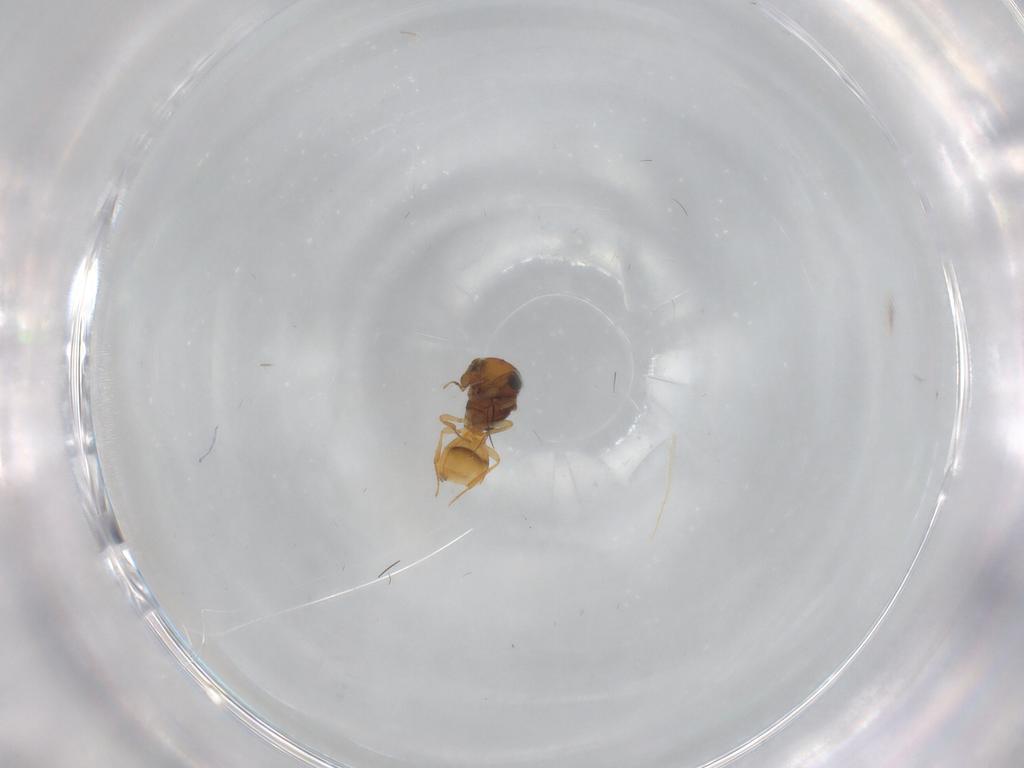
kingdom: Animalia
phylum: Arthropoda
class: Insecta
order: Hymenoptera
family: Scelionidae
